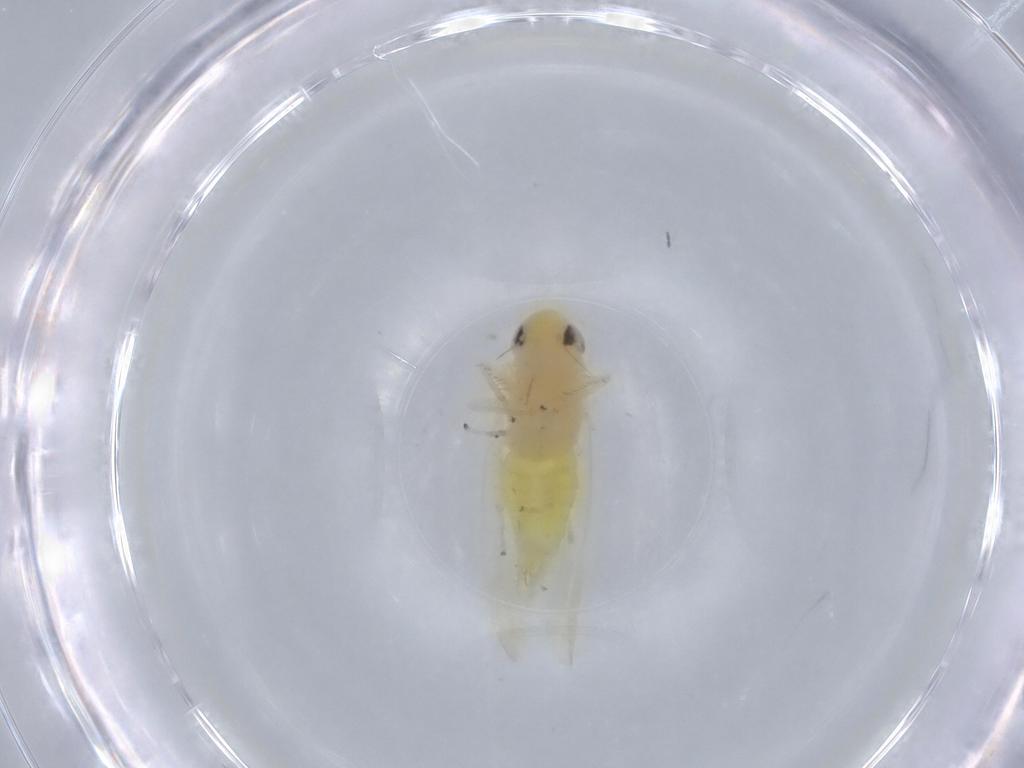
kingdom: Animalia
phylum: Arthropoda
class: Insecta
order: Hemiptera
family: Cicadellidae
